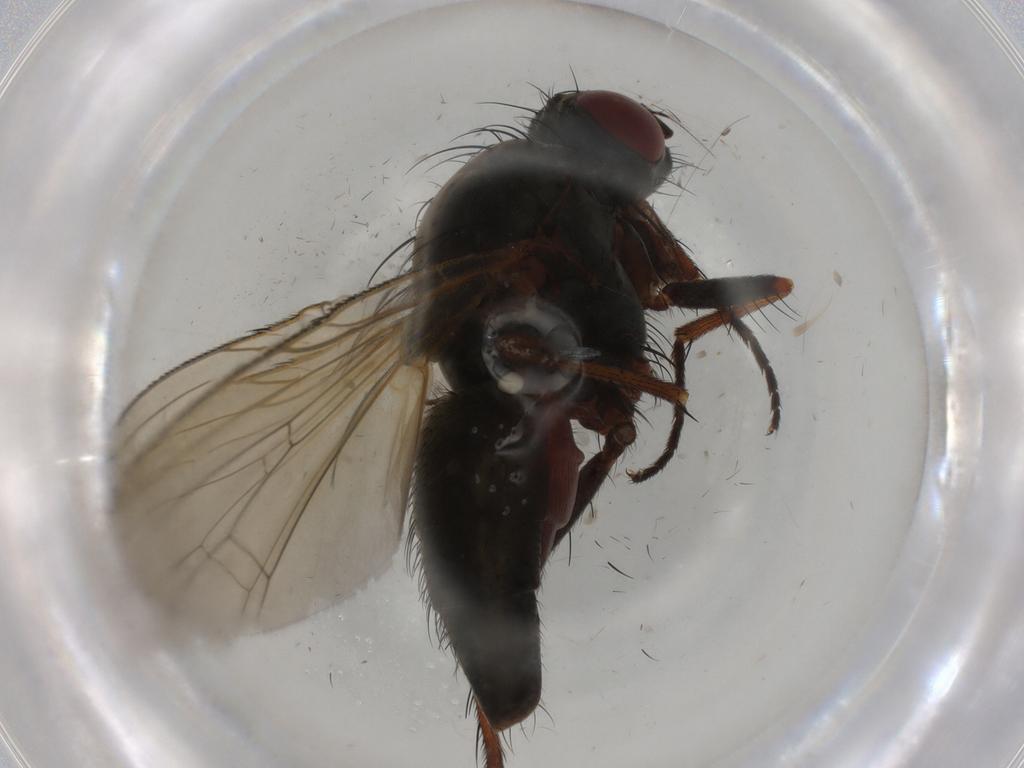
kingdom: Animalia
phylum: Arthropoda
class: Insecta
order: Diptera
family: Anthomyiidae
